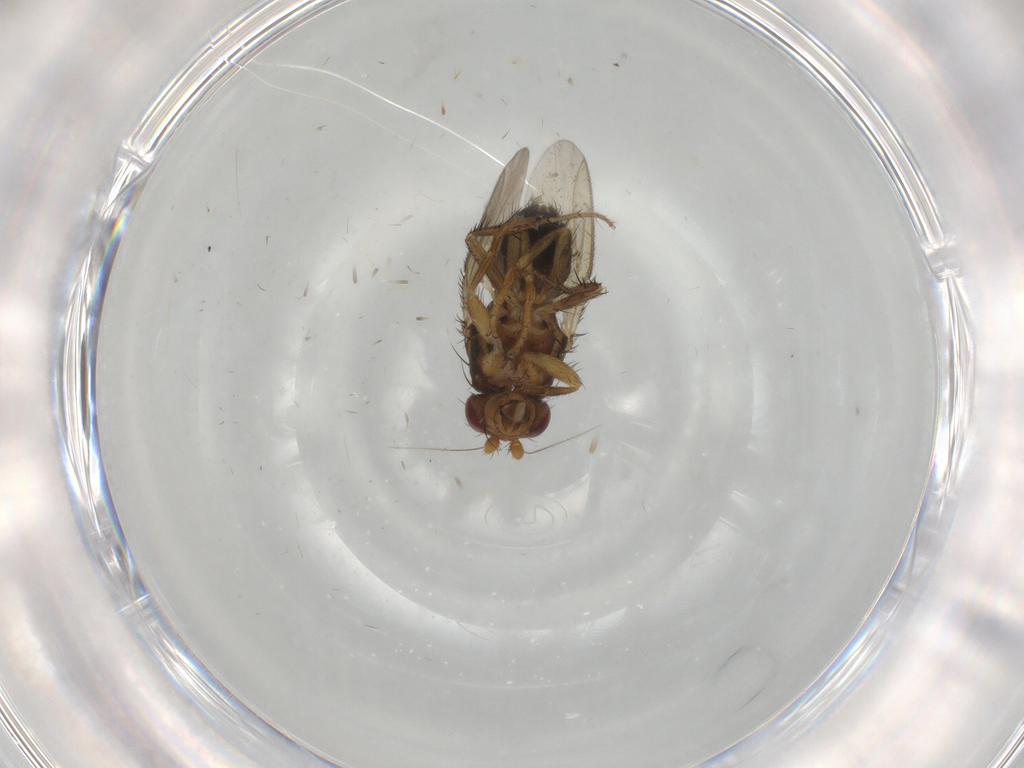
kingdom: Animalia
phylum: Arthropoda
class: Insecta
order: Diptera
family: Sphaeroceridae
